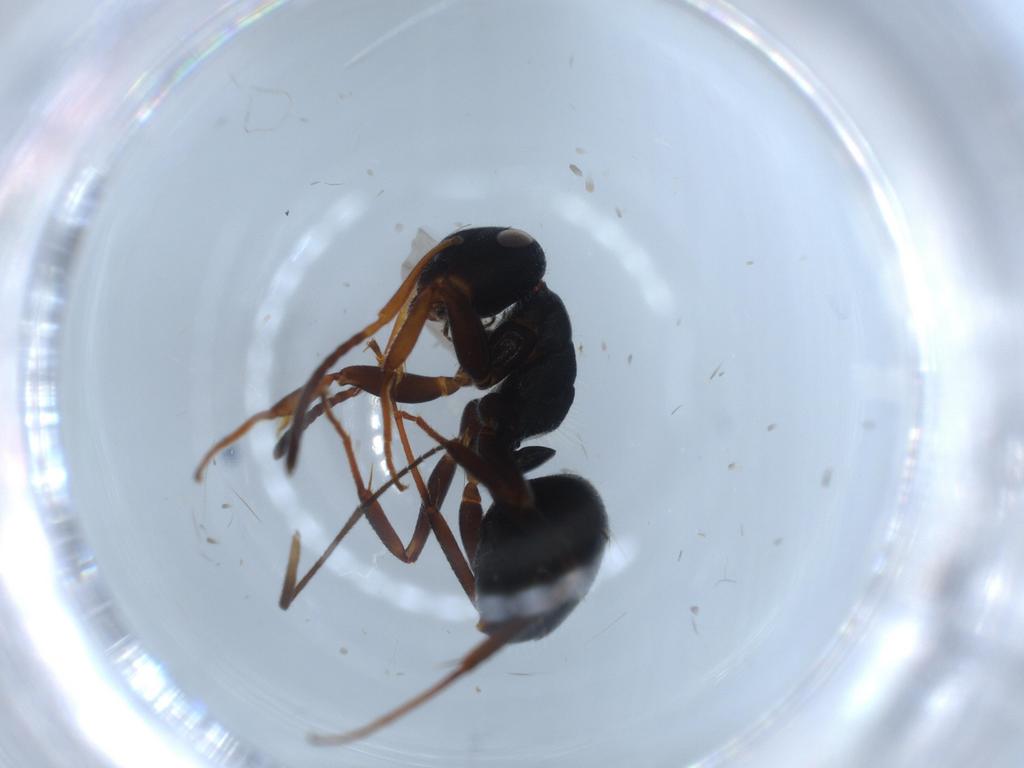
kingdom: Animalia
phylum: Arthropoda
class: Insecta
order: Hymenoptera
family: Formicidae
